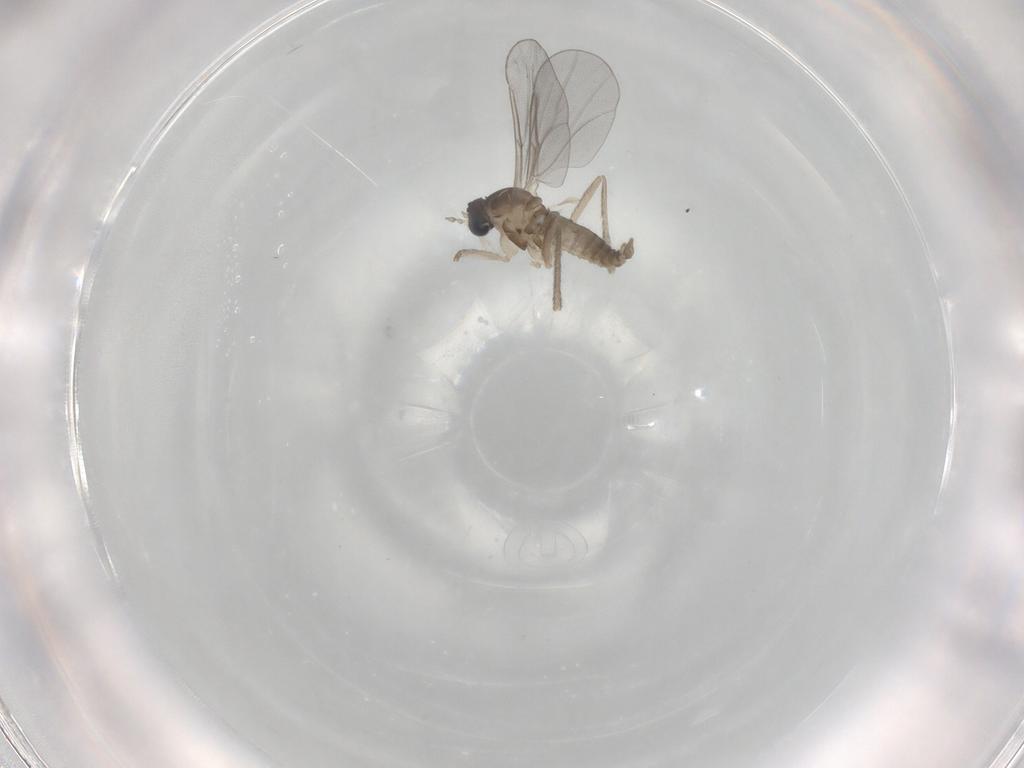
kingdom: Animalia
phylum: Arthropoda
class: Insecta
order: Diptera
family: Cecidomyiidae
